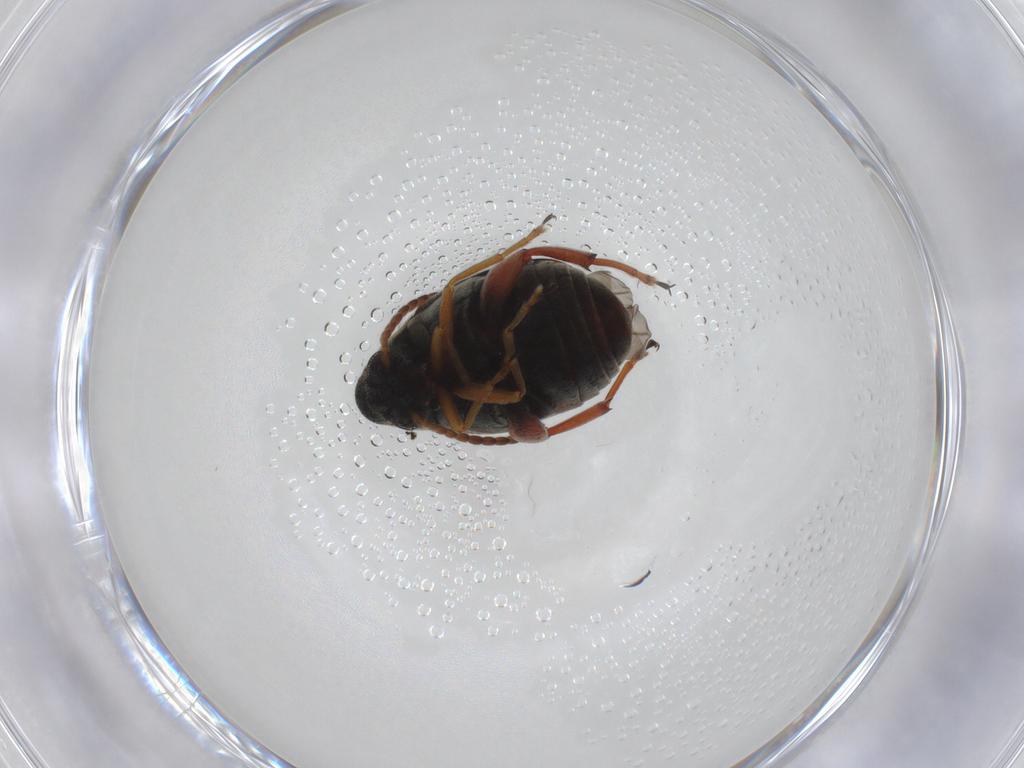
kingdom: Animalia
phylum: Arthropoda
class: Insecta
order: Coleoptera
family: Chrysomelidae
